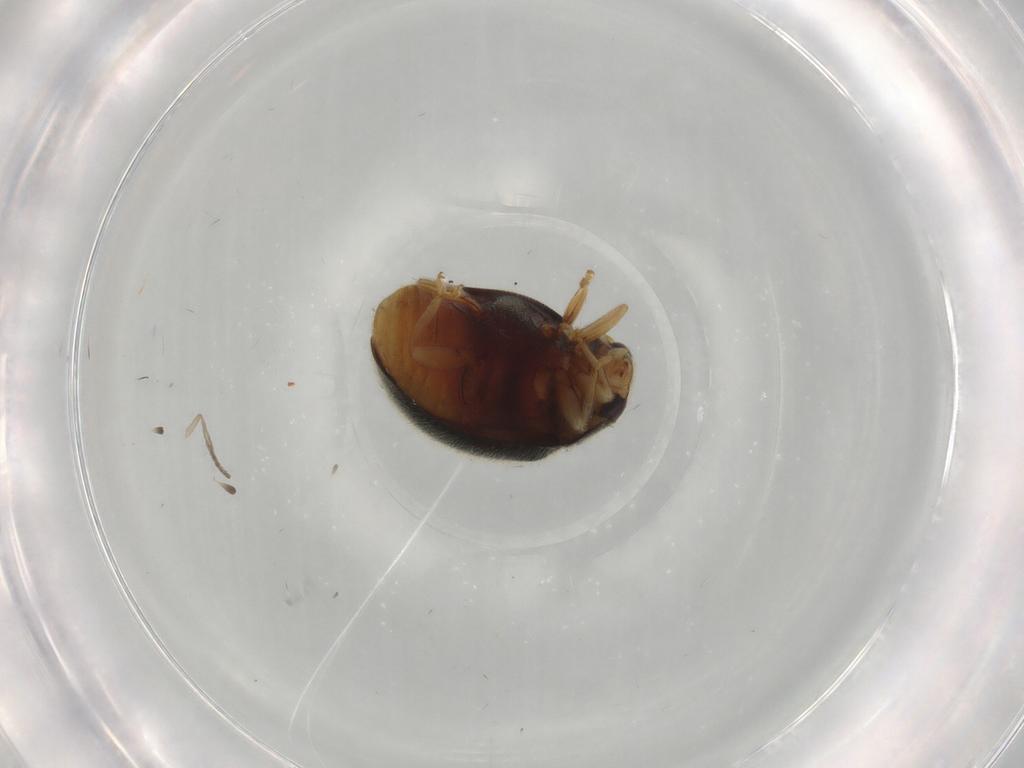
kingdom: Animalia
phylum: Arthropoda
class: Insecta
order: Coleoptera
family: Coccinellidae
